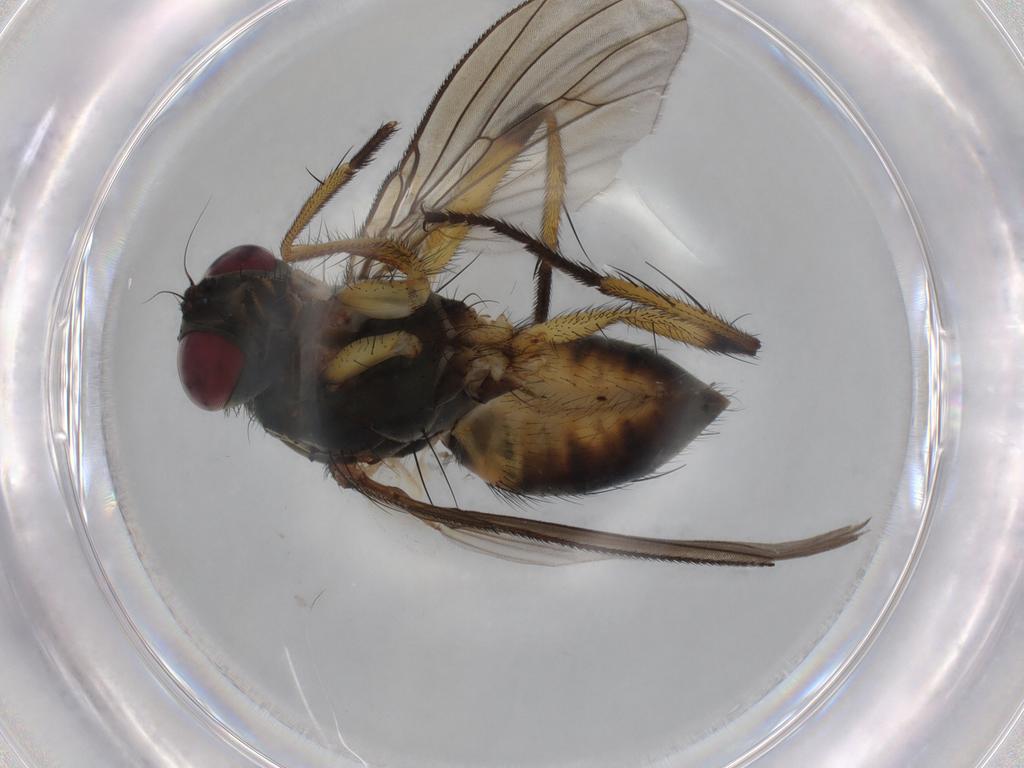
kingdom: Animalia
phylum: Arthropoda
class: Insecta
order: Diptera
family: Muscidae
